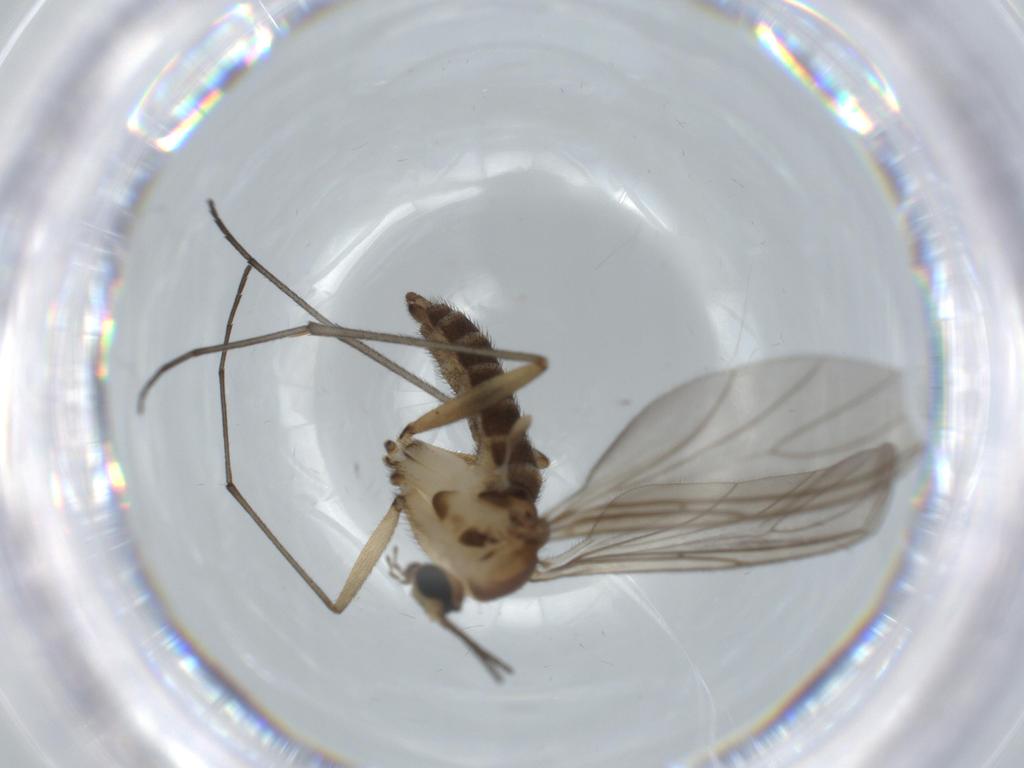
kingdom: Animalia
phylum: Arthropoda
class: Insecta
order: Diptera
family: Sciaridae
